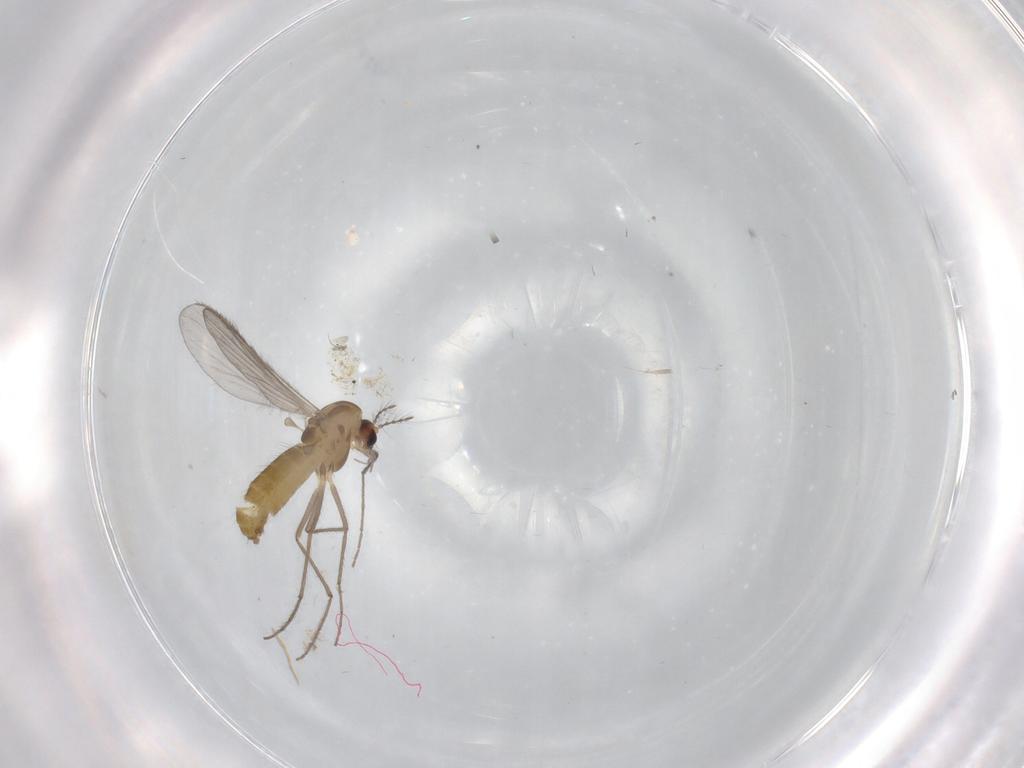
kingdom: Animalia
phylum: Arthropoda
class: Insecta
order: Diptera
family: Chironomidae
